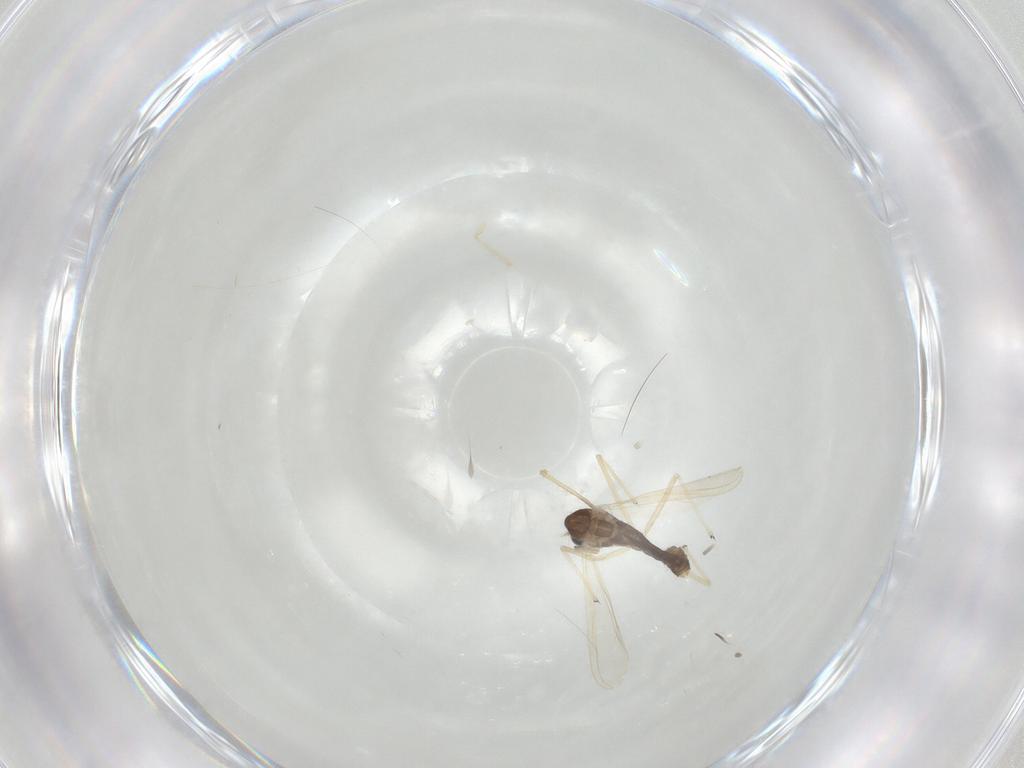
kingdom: Animalia
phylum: Arthropoda
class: Insecta
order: Diptera
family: Chironomidae
